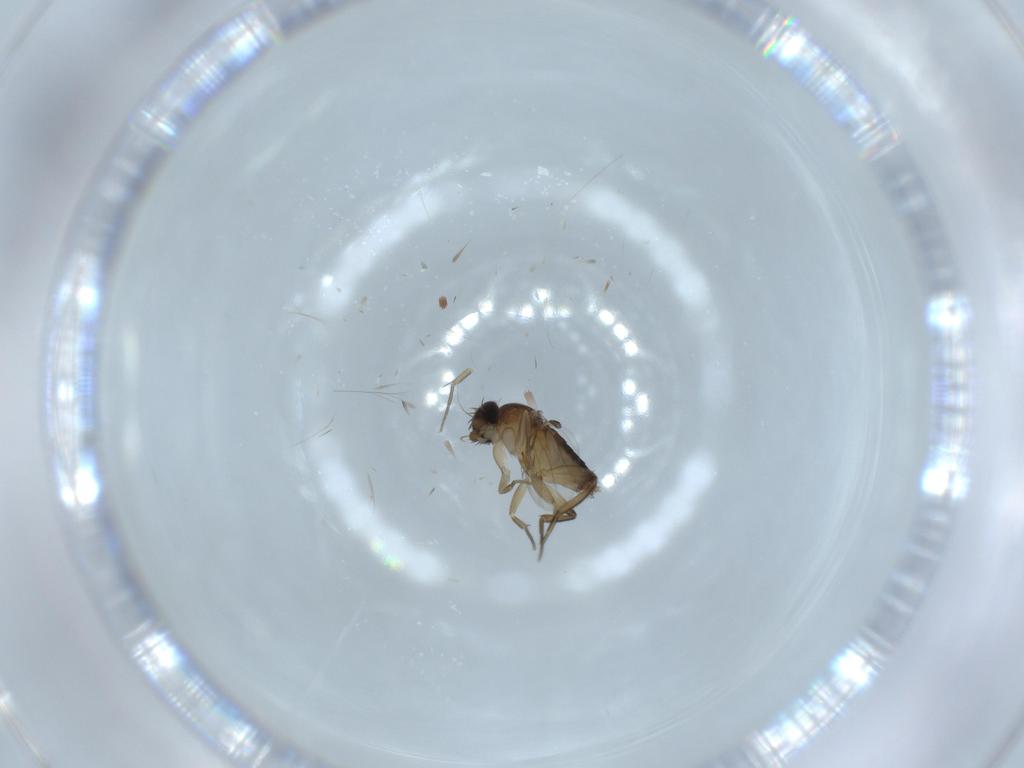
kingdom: Animalia
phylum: Arthropoda
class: Insecta
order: Diptera
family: Phoridae
